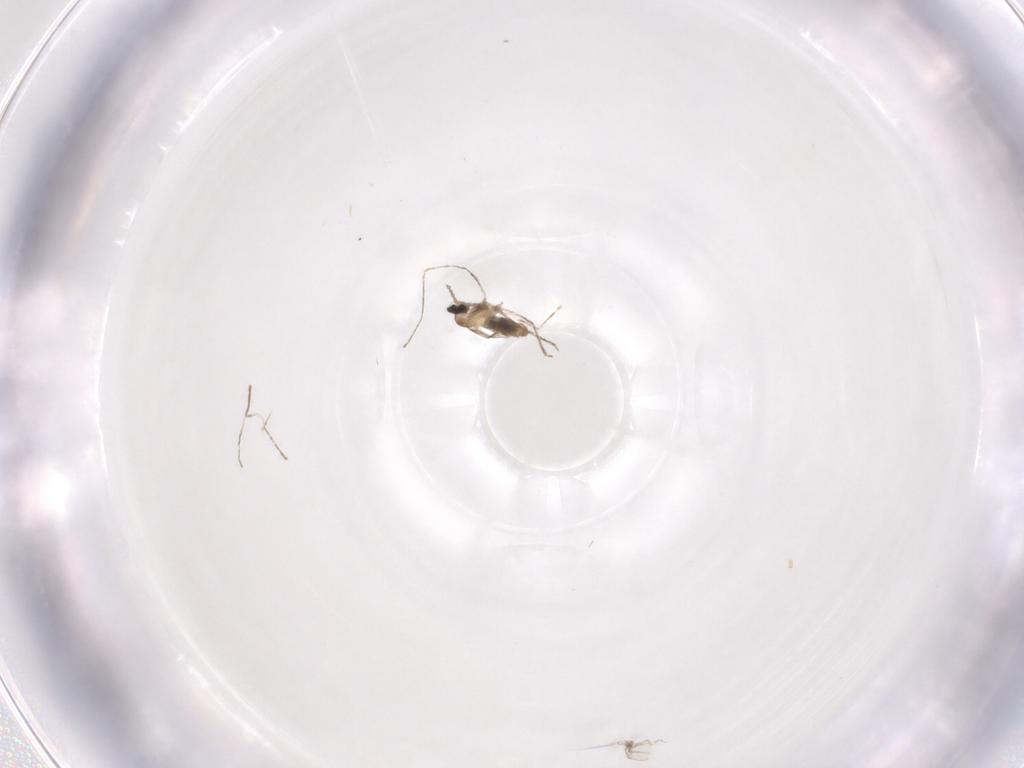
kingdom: Animalia
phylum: Arthropoda
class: Insecta
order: Diptera
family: Cecidomyiidae
